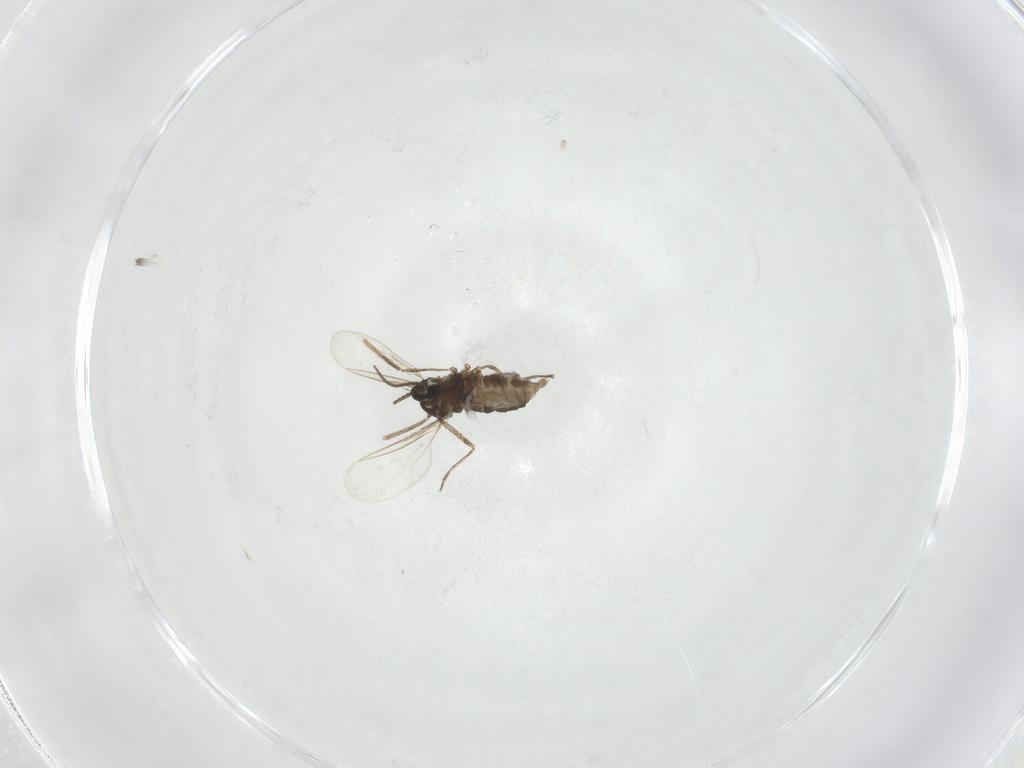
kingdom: Animalia
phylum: Arthropoda
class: Insecta
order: Diptera
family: Cecidomyiidae
